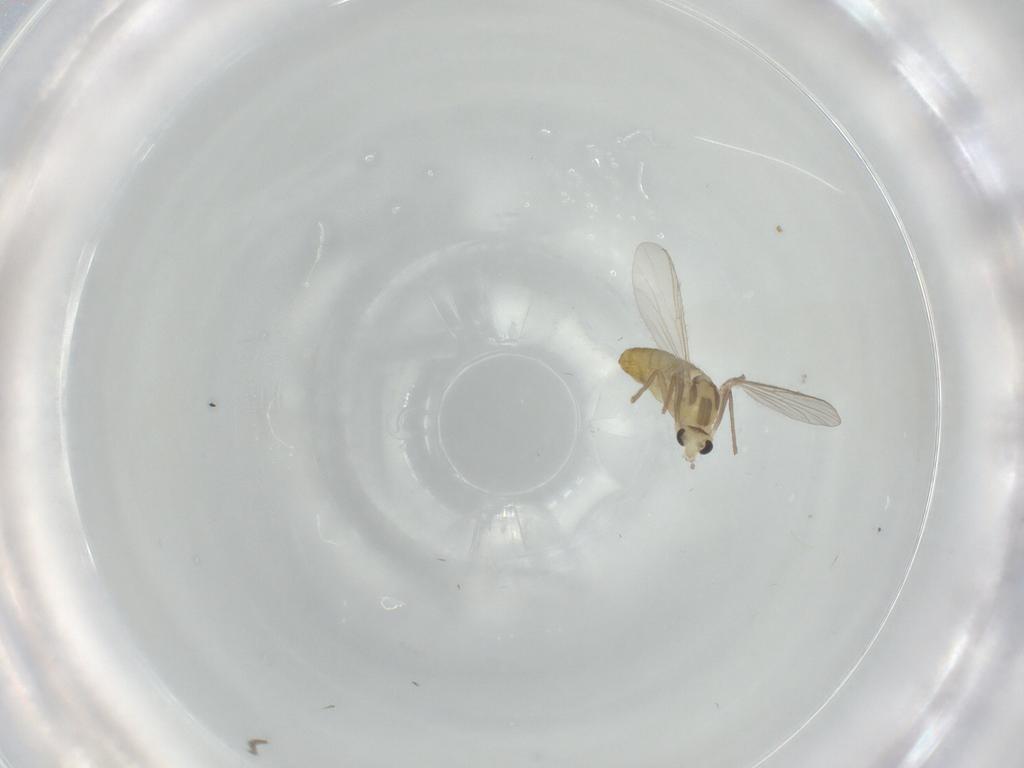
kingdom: Animalia
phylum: Arthropoda
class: Insecta
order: Diptera
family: Chironomidae
